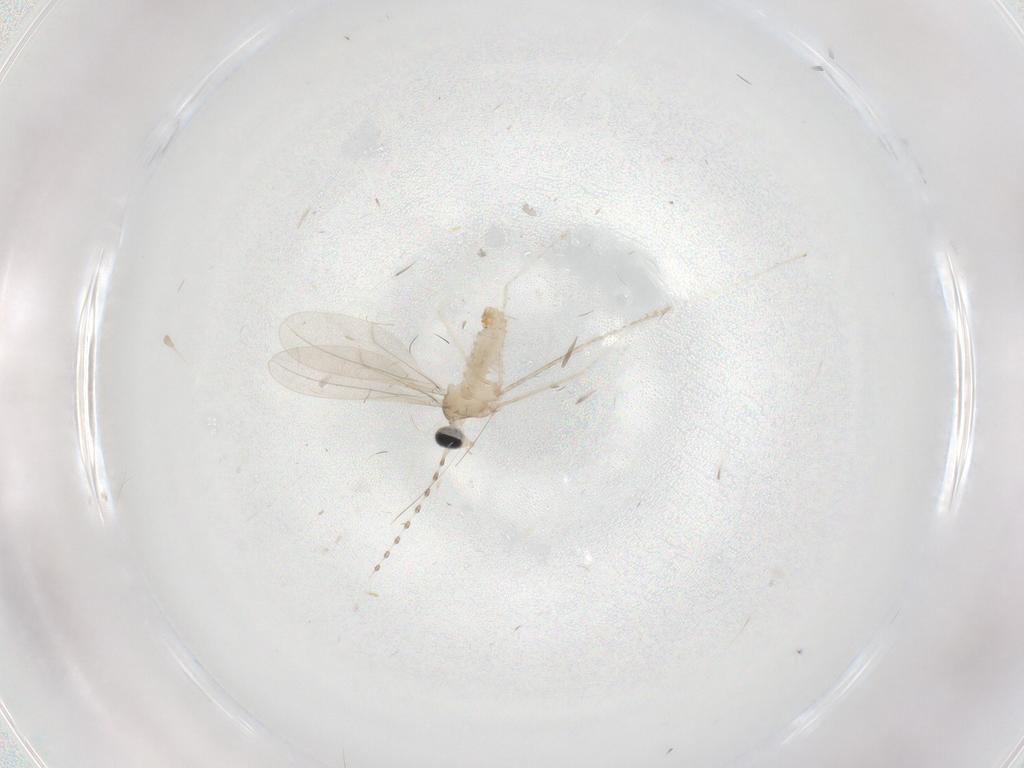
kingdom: Animalia
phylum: Arthropoda
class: Insecta
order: Diptera
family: Cecidomyiidae
